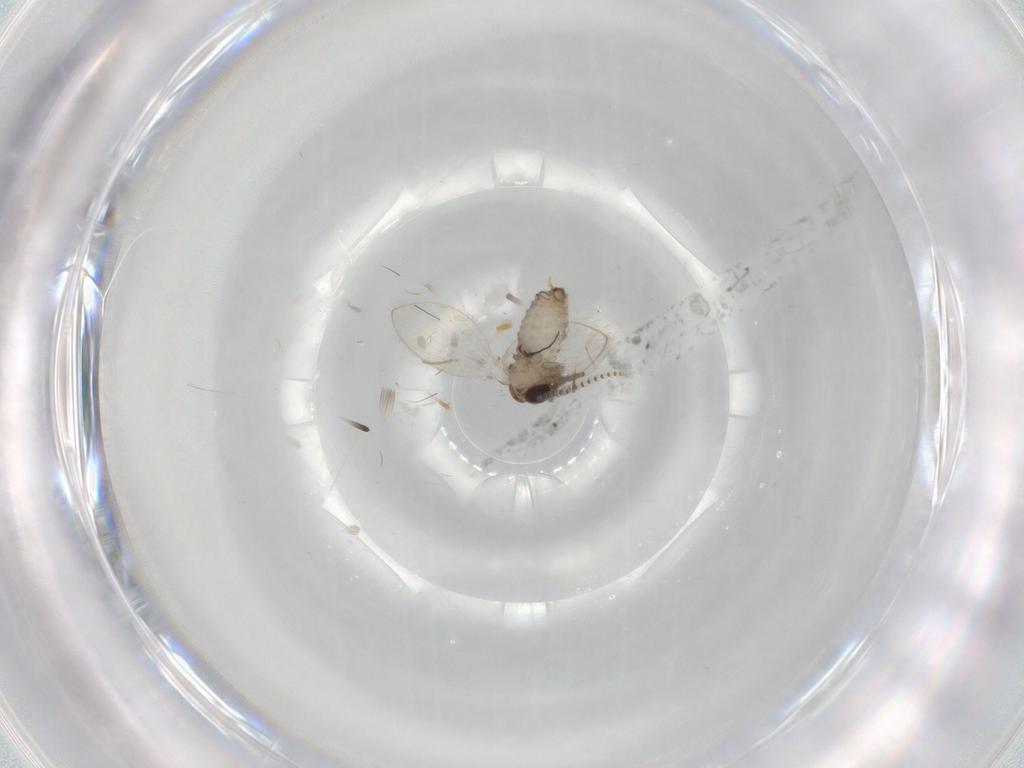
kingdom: Animalia
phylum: Arthropoda
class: Insecta
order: Diptera
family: Psychodidae
